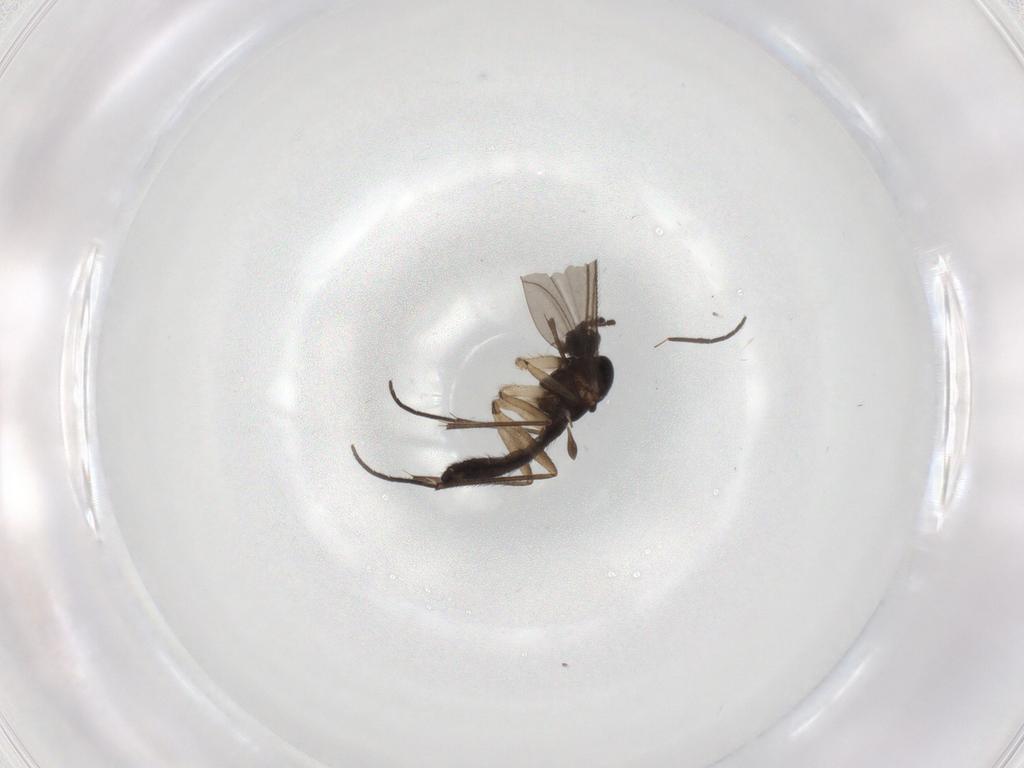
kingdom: Animalia
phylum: Arthropoda
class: Insecta
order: Diptera
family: Sciaridae
